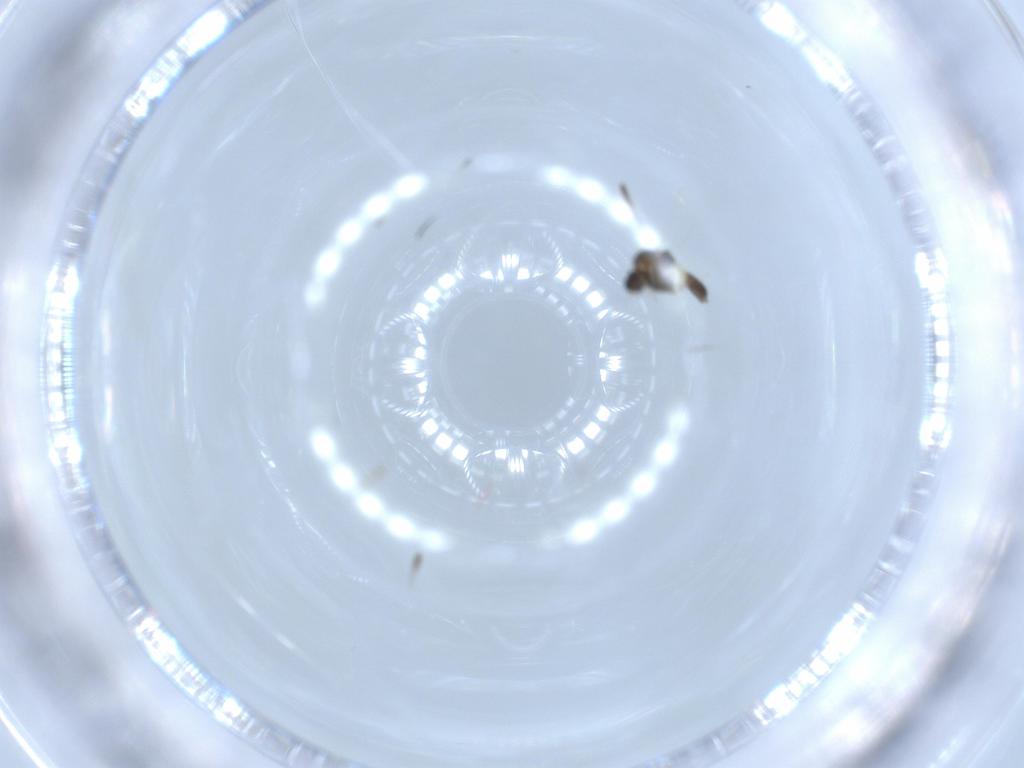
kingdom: Animalia
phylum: Arthropoda
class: Insecta
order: Diptera
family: Chironomidae
